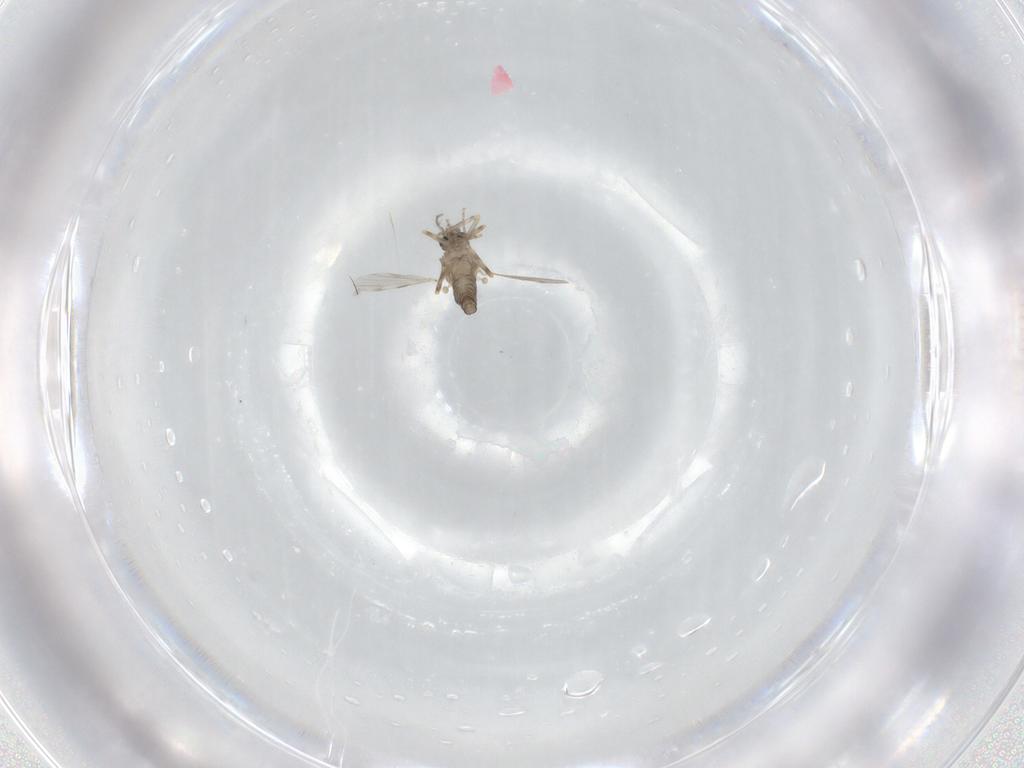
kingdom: Animalia
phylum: Arthropoda
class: Insecta
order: Diptera
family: Ceratopogonidae
